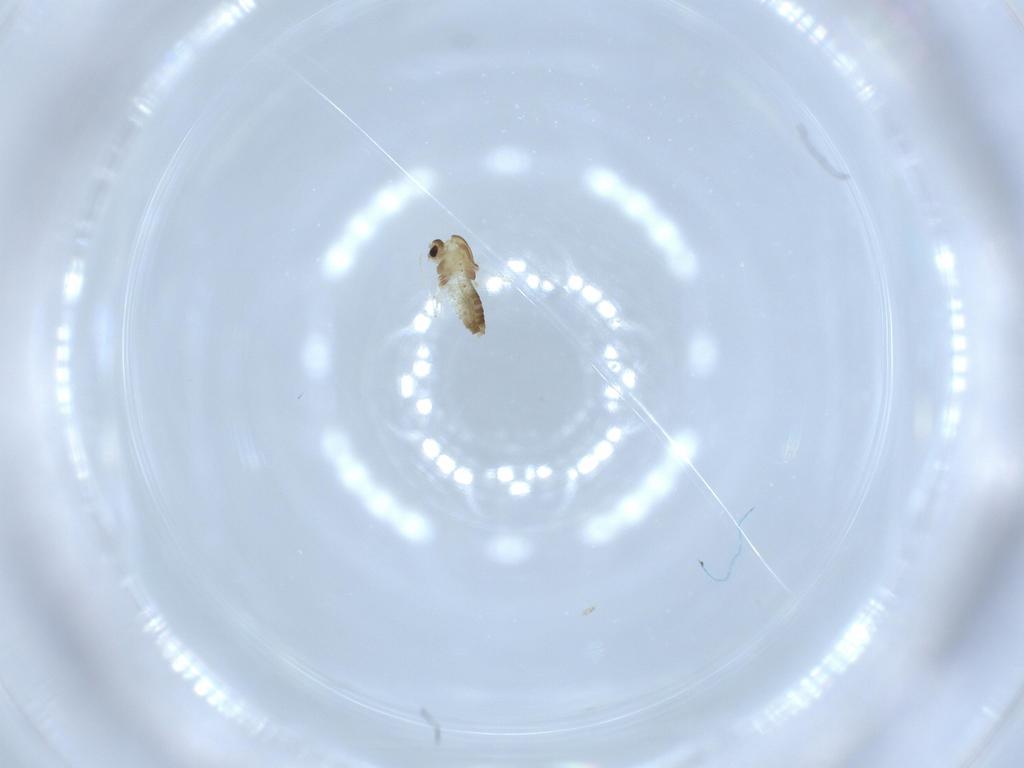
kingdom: Animalia
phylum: Arthropoda
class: Insecta
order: Diptera
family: Chironomidae
